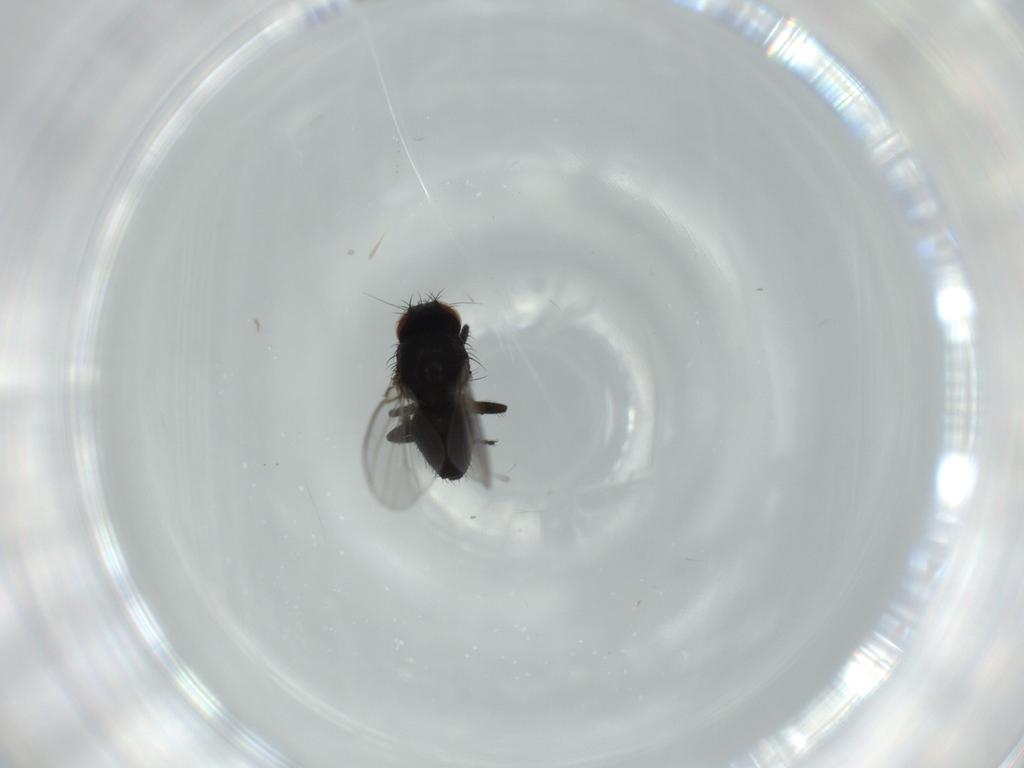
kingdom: Animalia
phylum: Arthropoda
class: Insecta
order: Diptera
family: Milichiidae
